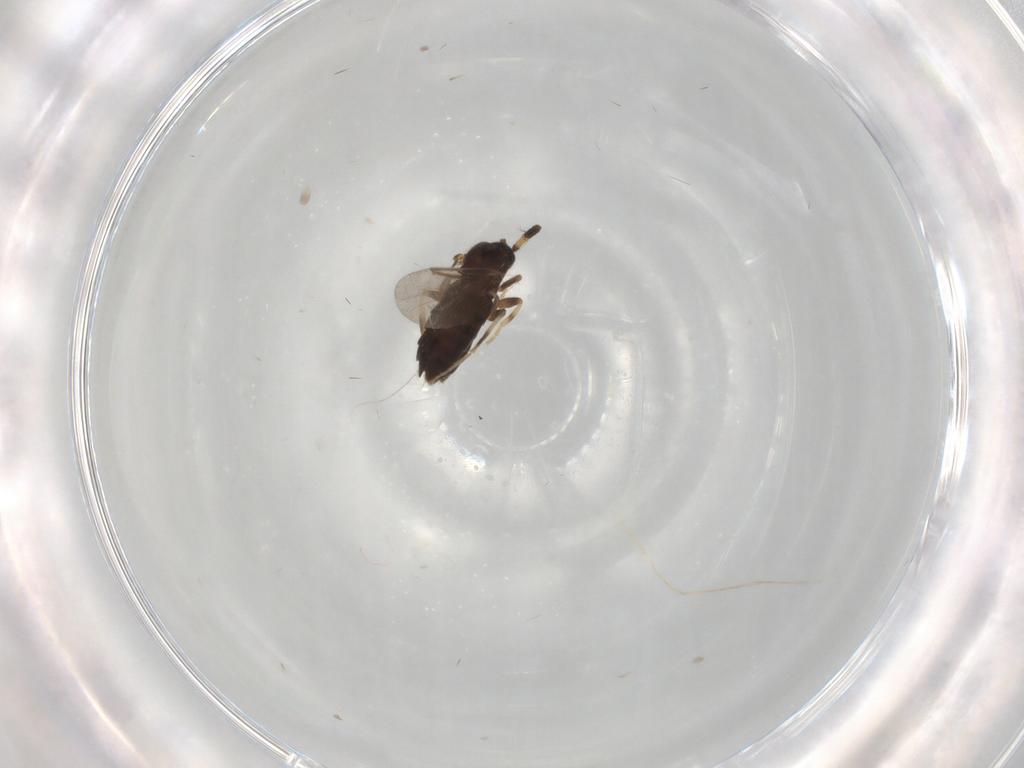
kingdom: Animalia
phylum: Arthropoda
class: Insecta
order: Diptera
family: Scatopsidae
